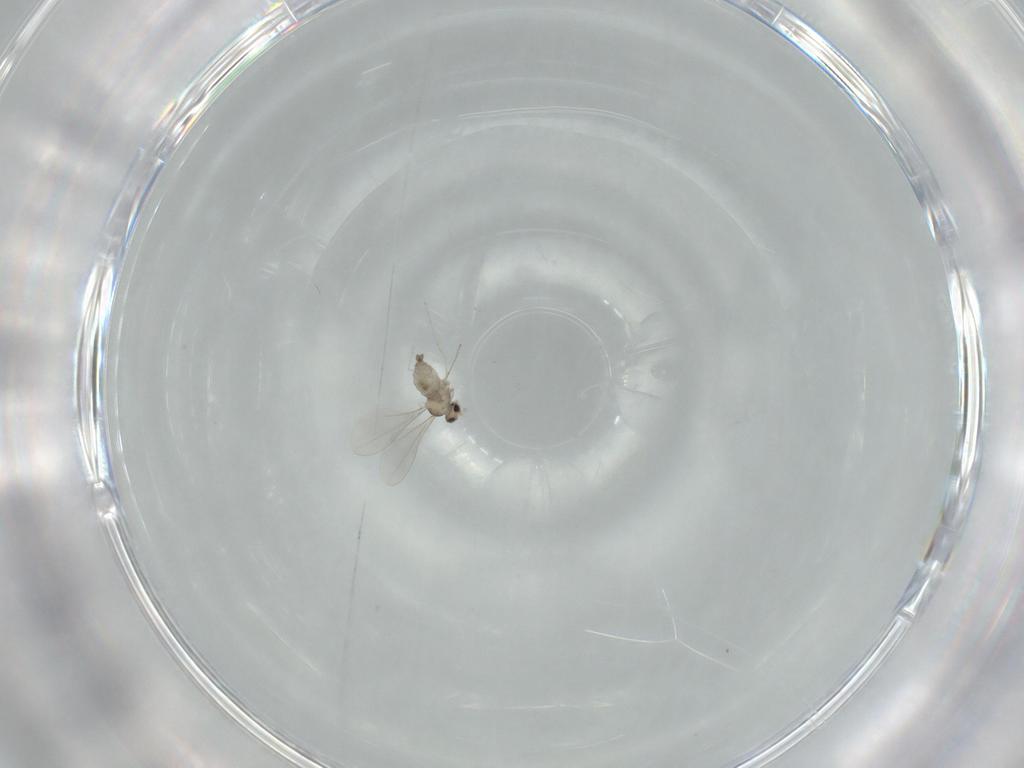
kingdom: Animalia
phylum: Arthropoda
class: Insecta
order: Diptera
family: Cecidomyiidae
